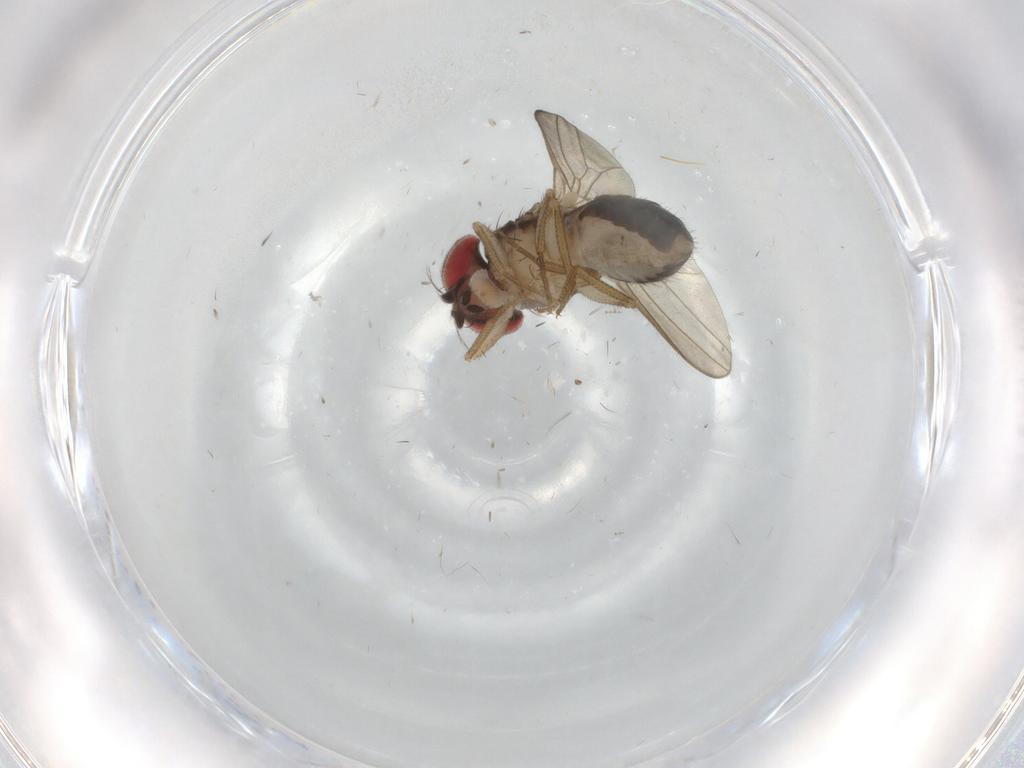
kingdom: Animalia
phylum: Arthropoda
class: Insecta
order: Diptera
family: Drosophilidae
